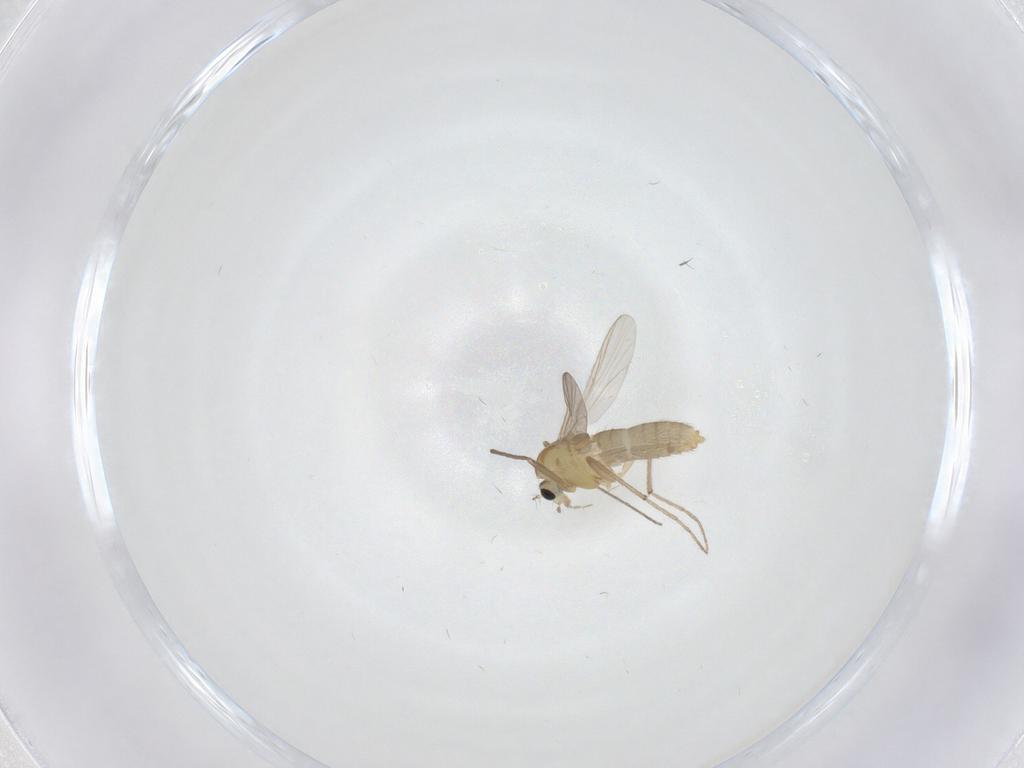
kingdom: Animalia
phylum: Arthropoda
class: Insecta
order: Diptera
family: Chironomidae
